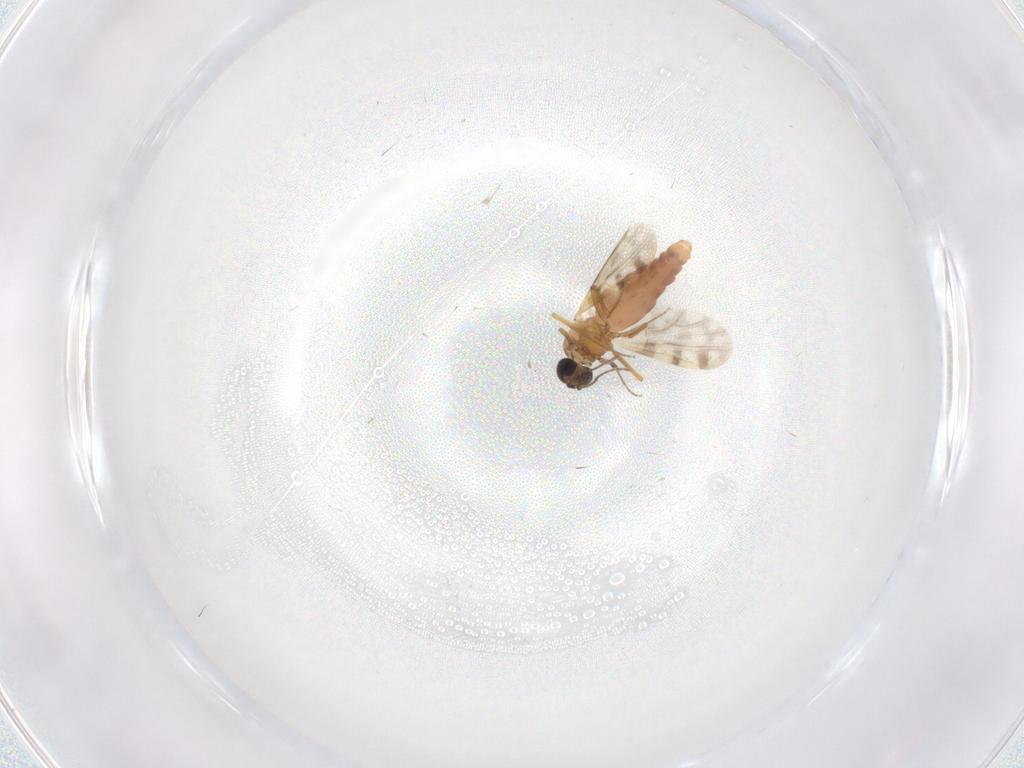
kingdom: Animalia
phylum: Arthropoda
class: Insecta
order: Diptera
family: Ceratopogonidae
